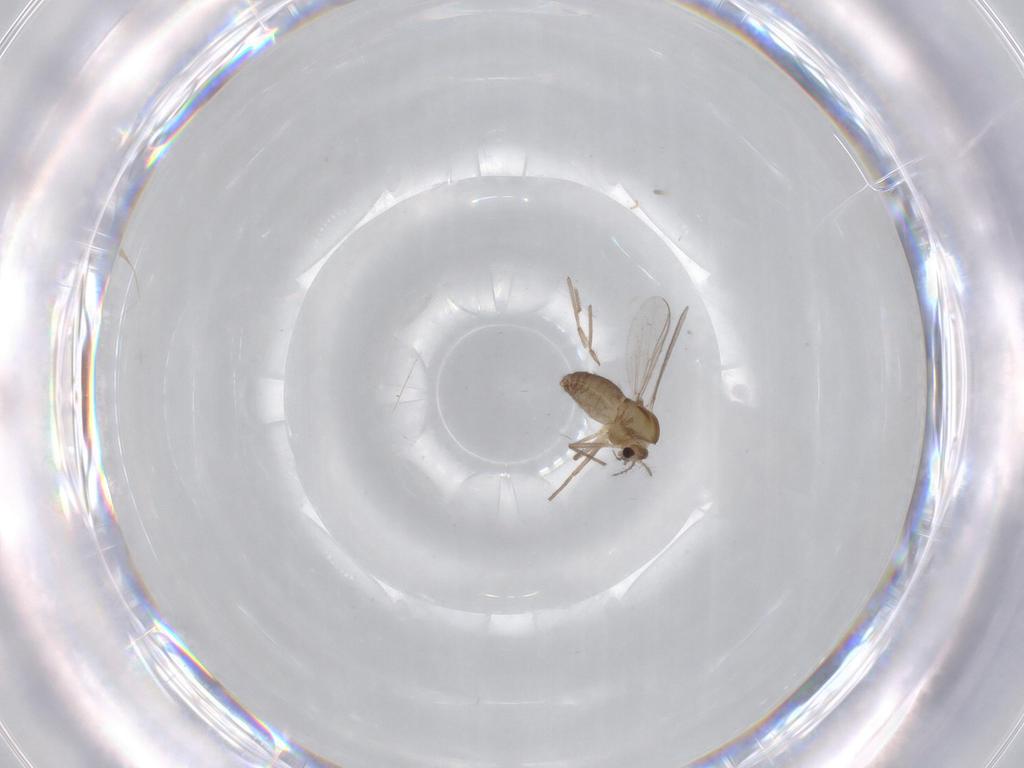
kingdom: Animalia
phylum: Arthropoda
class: Insecta
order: Diptera
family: Chironomidae
